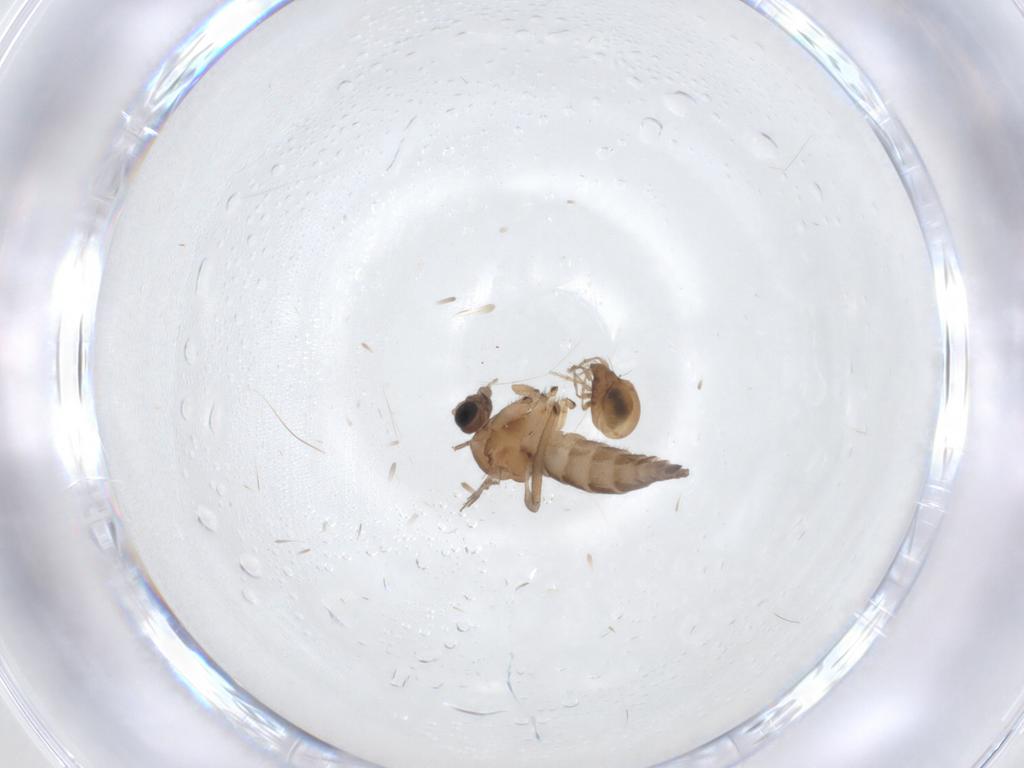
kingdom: Animalia
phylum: Arthropoda
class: Insecta
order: Diptera
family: Sciaridae
